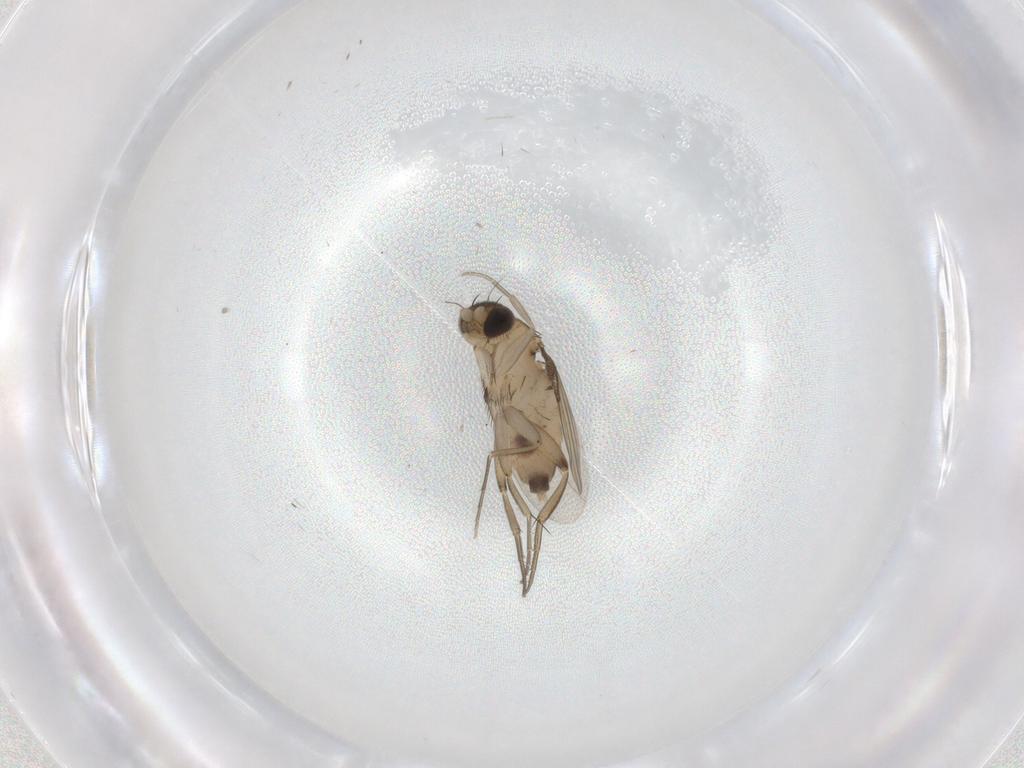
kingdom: Animalia
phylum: Arthropoda
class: Insecta
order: Diptera
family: Phoridae
